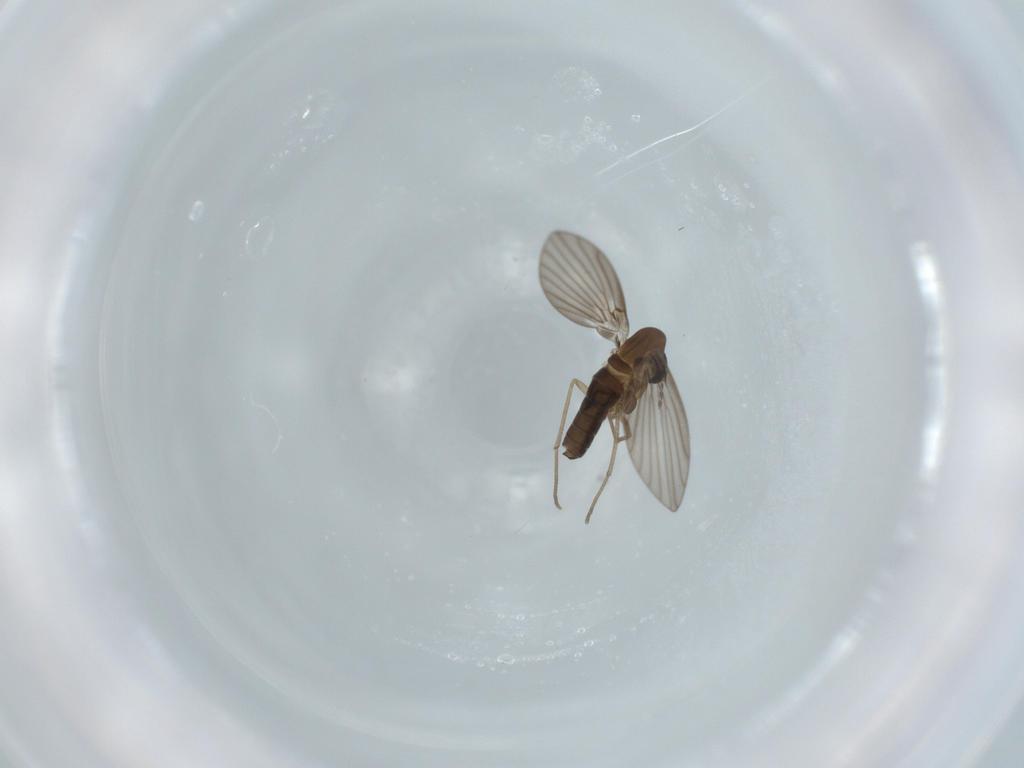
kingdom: Animalia
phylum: Arthropoda
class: Insecta
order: Diptera
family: Psychodidae
